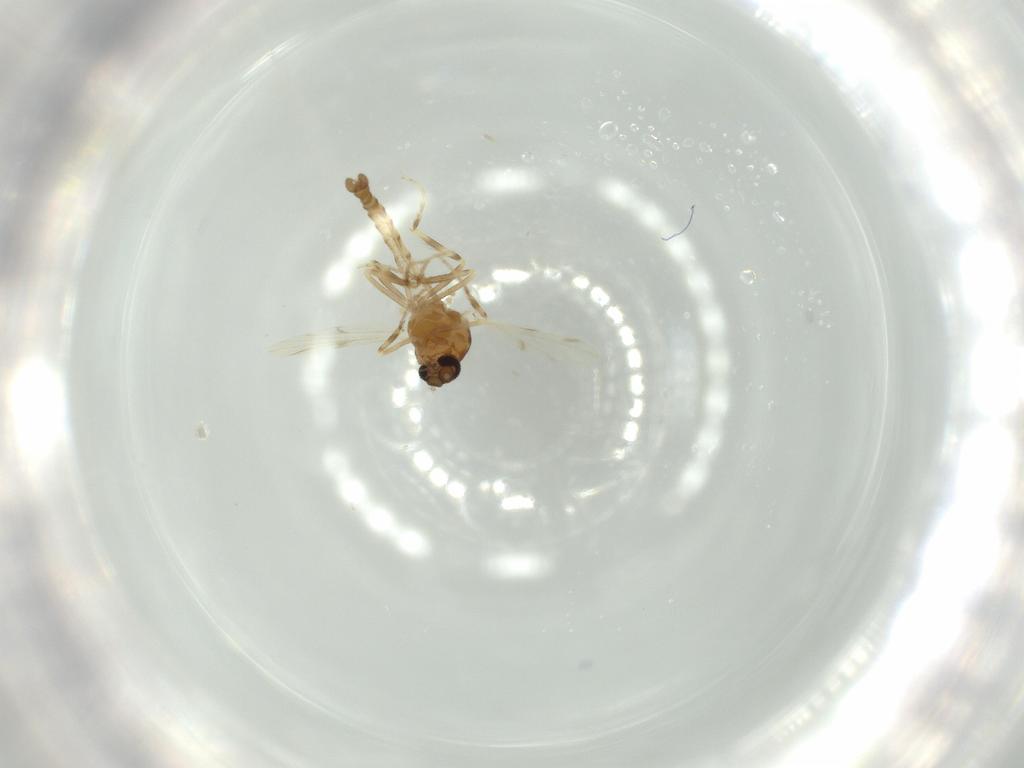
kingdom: Animalia
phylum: Arthropoda
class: Insecta
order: Diptera
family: Ceratopogonidae
